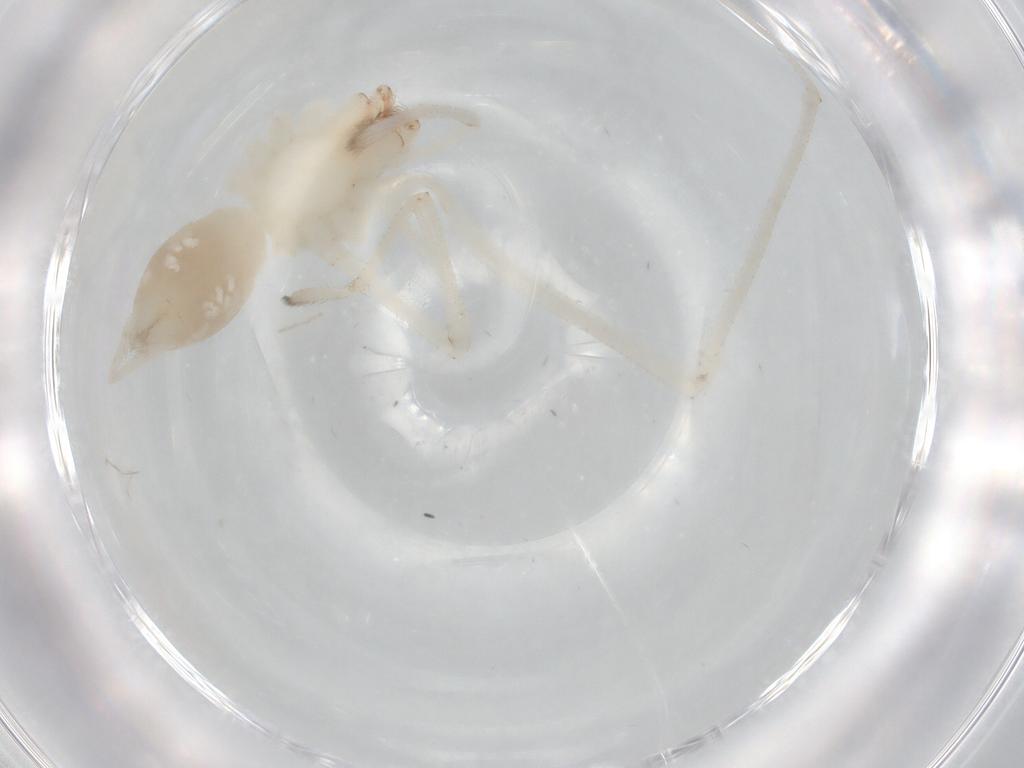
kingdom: Animalia
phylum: Arthropoda
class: Arachnida
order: Araneae
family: Cheiracanthiidae
